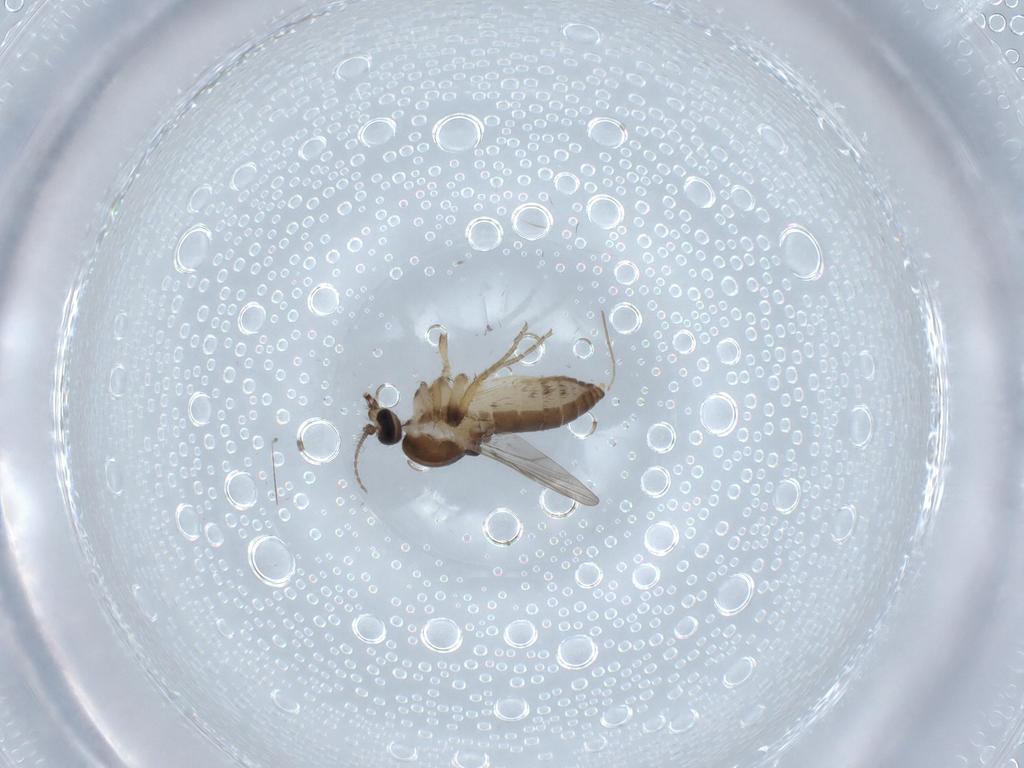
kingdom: Animalia
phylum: Arthropoda
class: Insecta
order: Diptera
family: Ceratopogonidae
